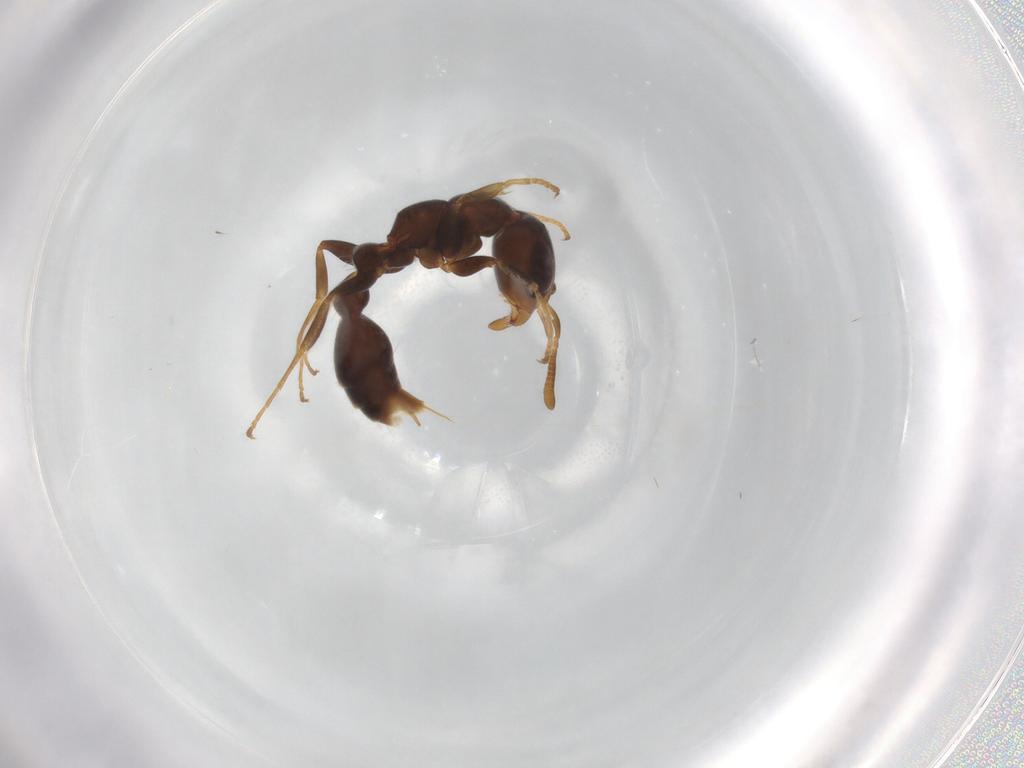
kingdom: Animalia
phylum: Arthropoda
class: Insecta
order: Hymenoptera
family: Formicidae
